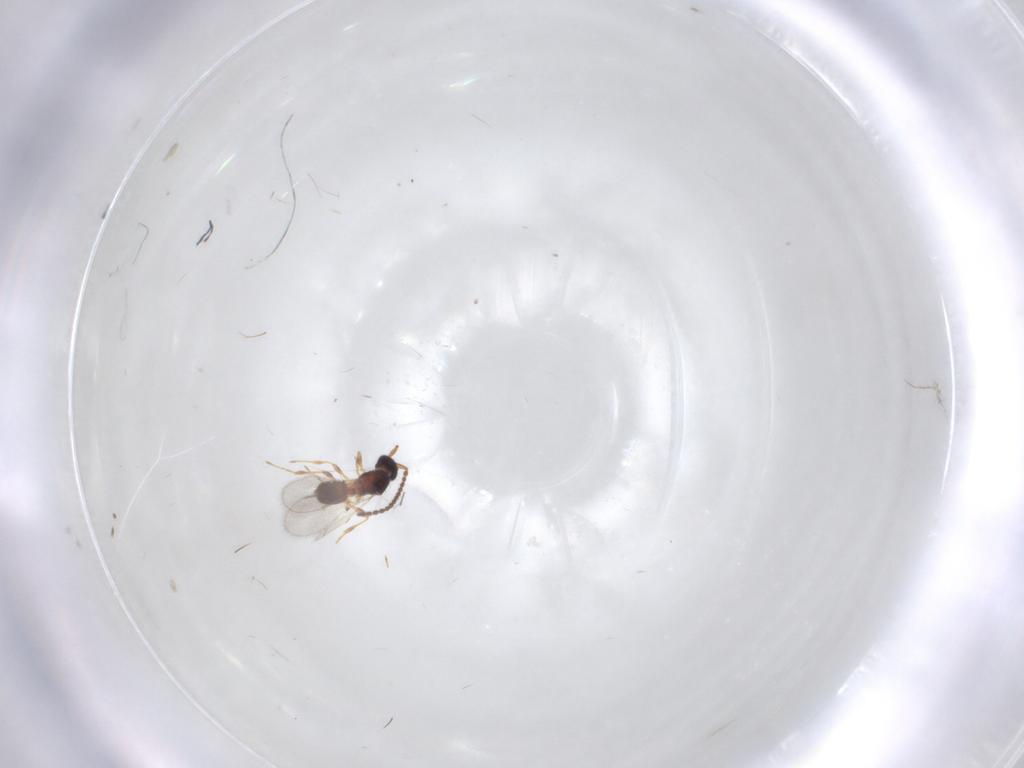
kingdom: Animalia
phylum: Arthropoda
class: Insecta
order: Hymenoptera
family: Diapriidae
